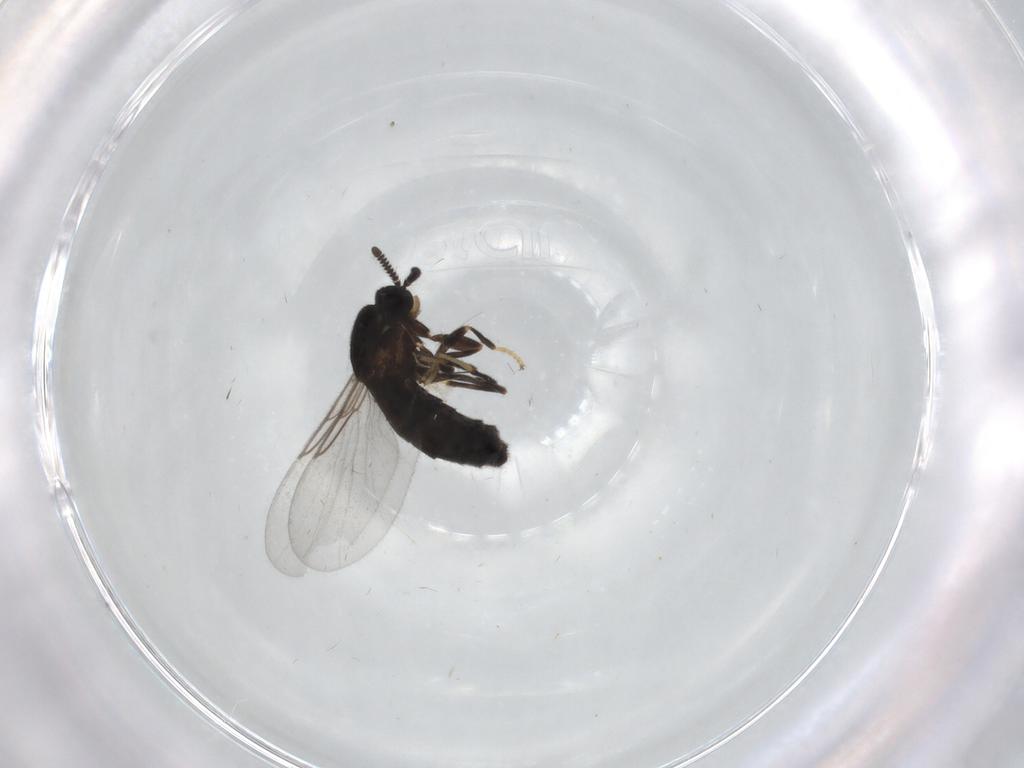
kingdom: Animalia
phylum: Arthropoda
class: Insecta
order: Diptera
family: Scatopsidae
